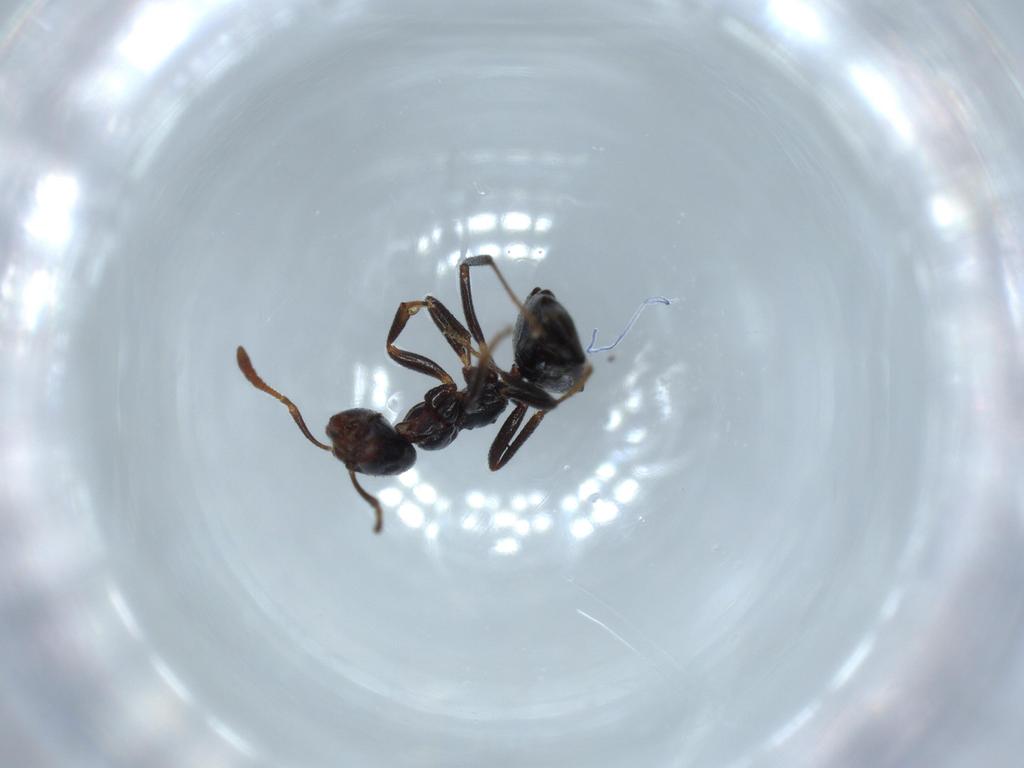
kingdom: Animalia
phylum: Arthropoda
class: Insecta
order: Hymenoptera
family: Formicidae
